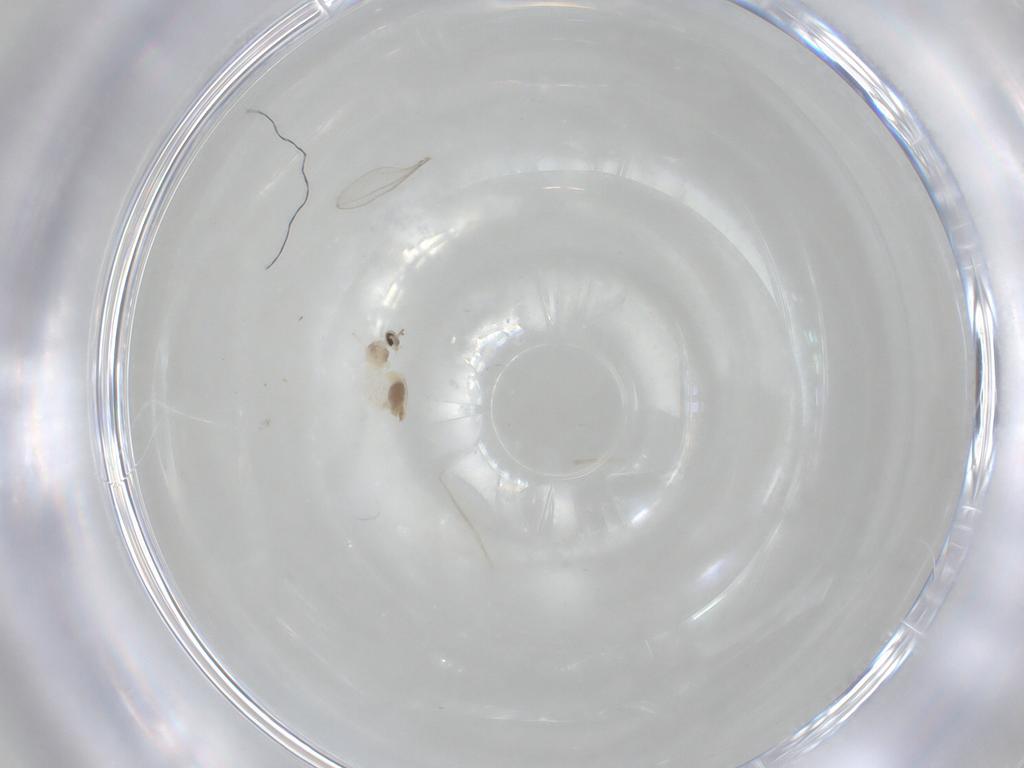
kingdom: Animalia
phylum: Arthropoda
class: Insecta
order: Diptera
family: Cecidomyiidae
